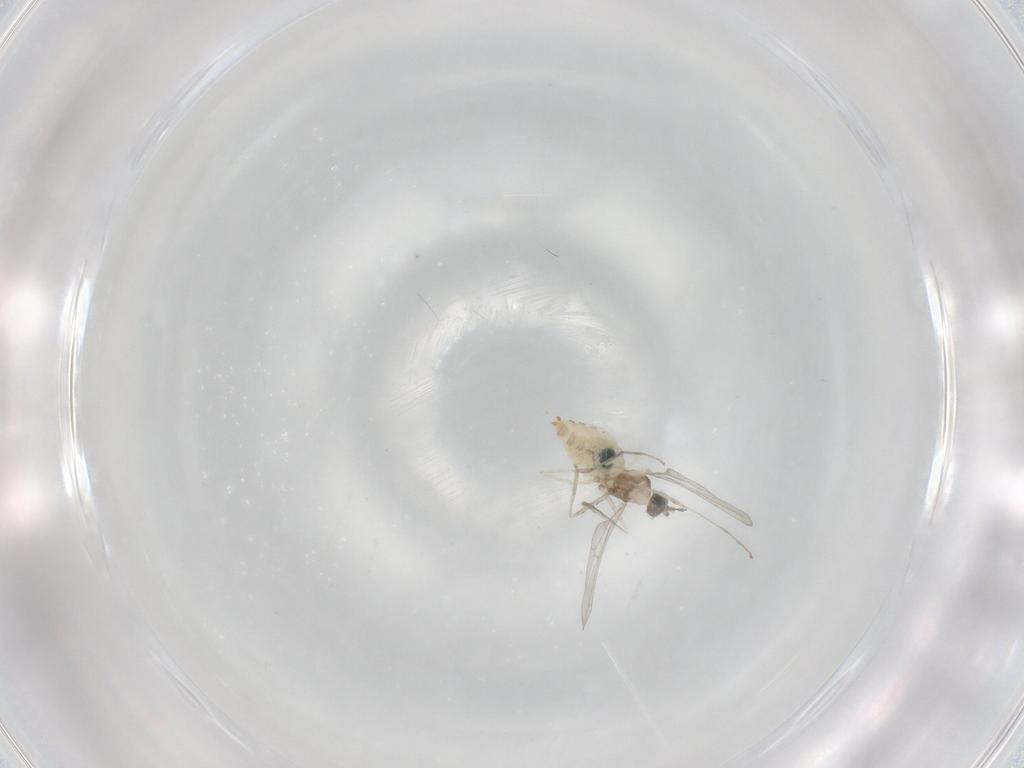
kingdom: Animalia
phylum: Arthropoda
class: Insecta
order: Diptera
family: Cecidomyiidae
